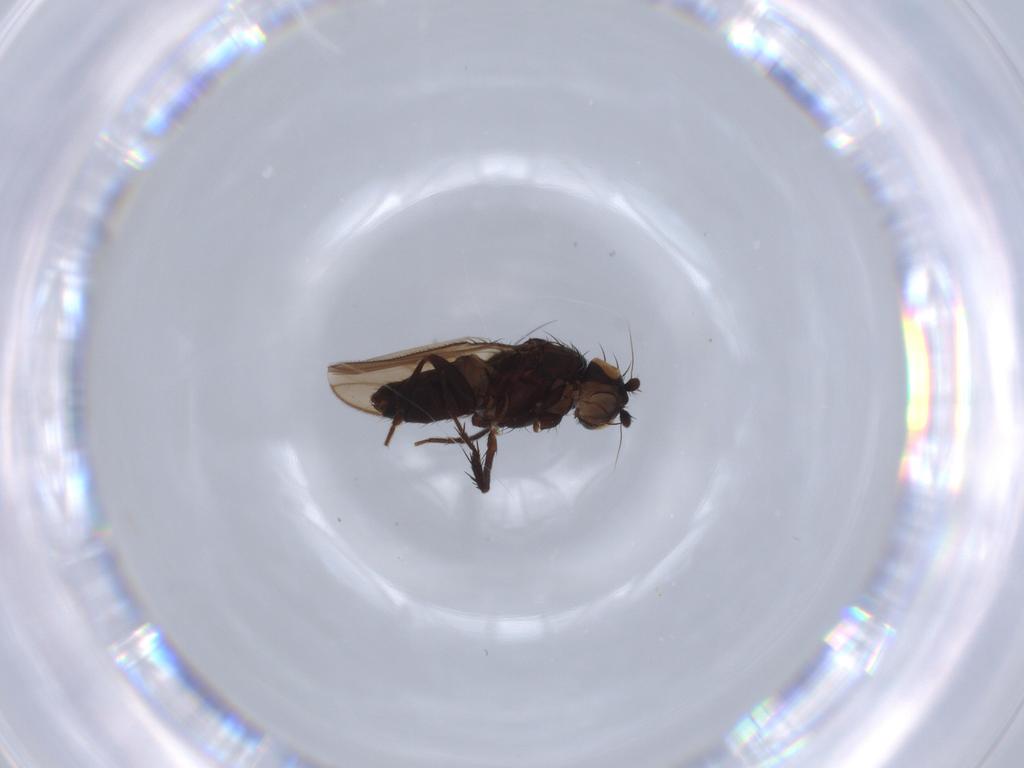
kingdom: Animalia
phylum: Arthropoda
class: Insecta
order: Diptera
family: Sphaeroceridae
